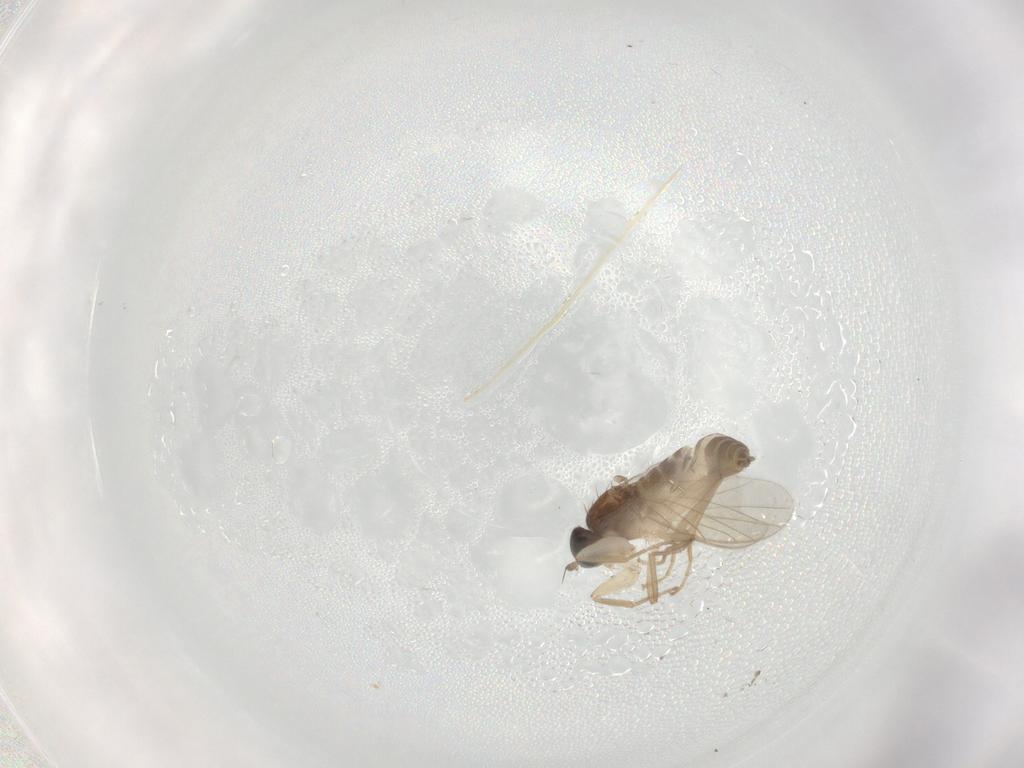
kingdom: Animalia
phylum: Arthropoda
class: Insecta
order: Diptera
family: Hybotidae
